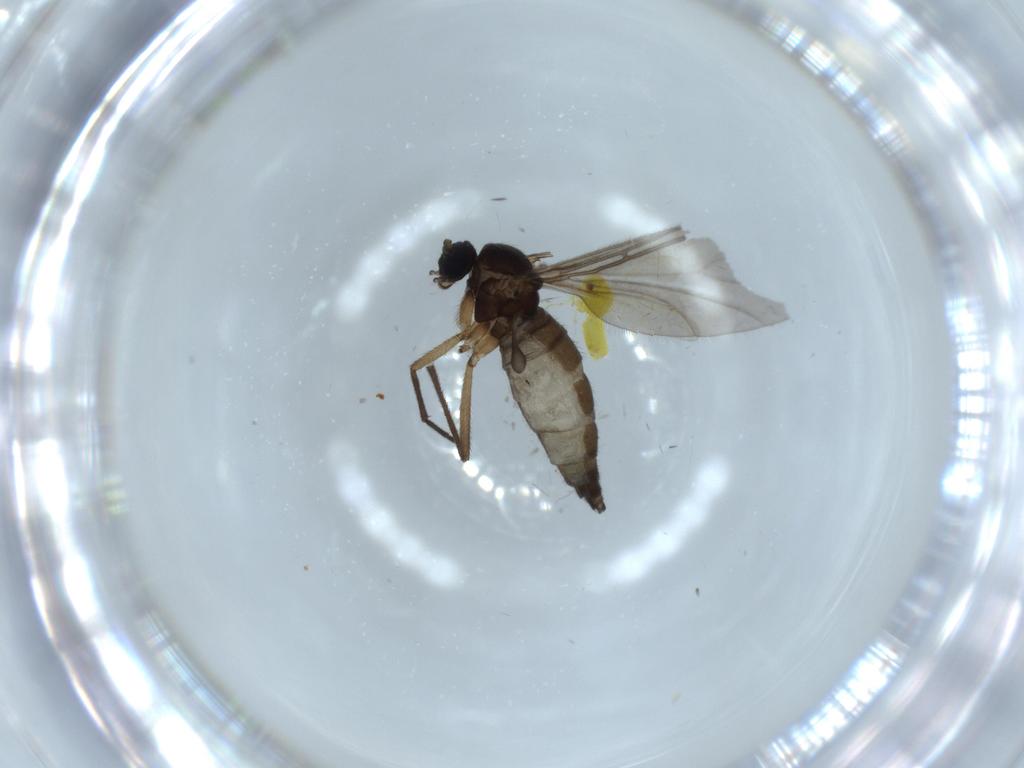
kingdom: Animalia
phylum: Arthropoda
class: Insecta
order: Diptera
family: Sciaridae
